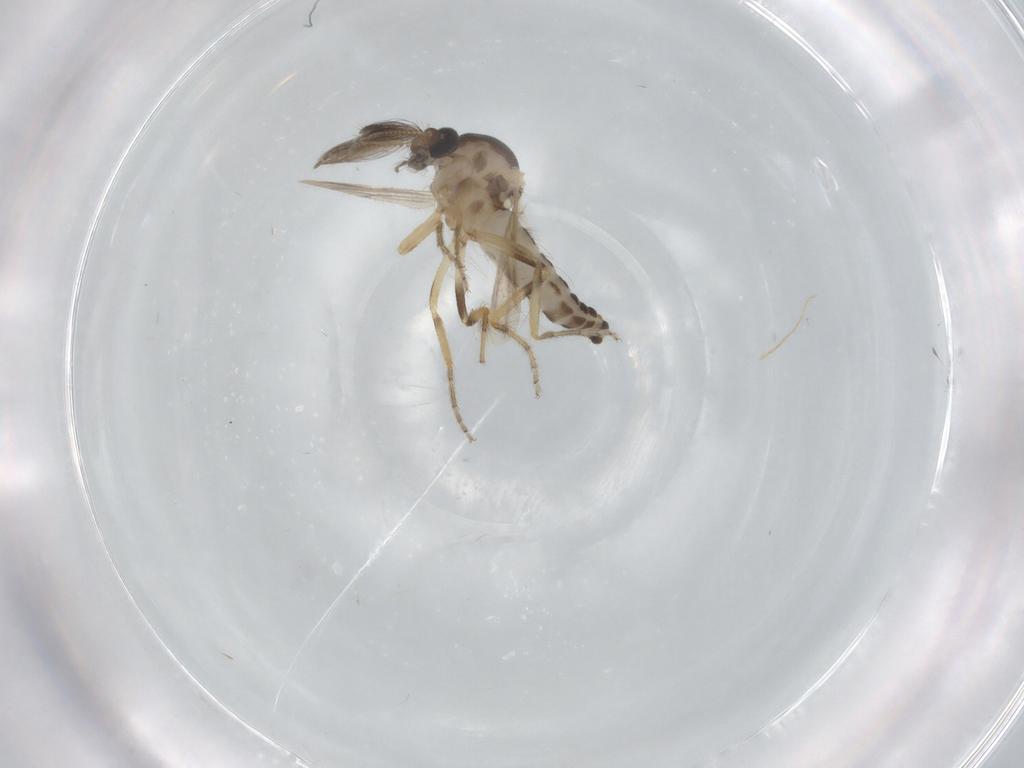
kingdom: Animalia
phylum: Arthropoda
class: Insecta
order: Diptera
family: Ceratopogonidae
